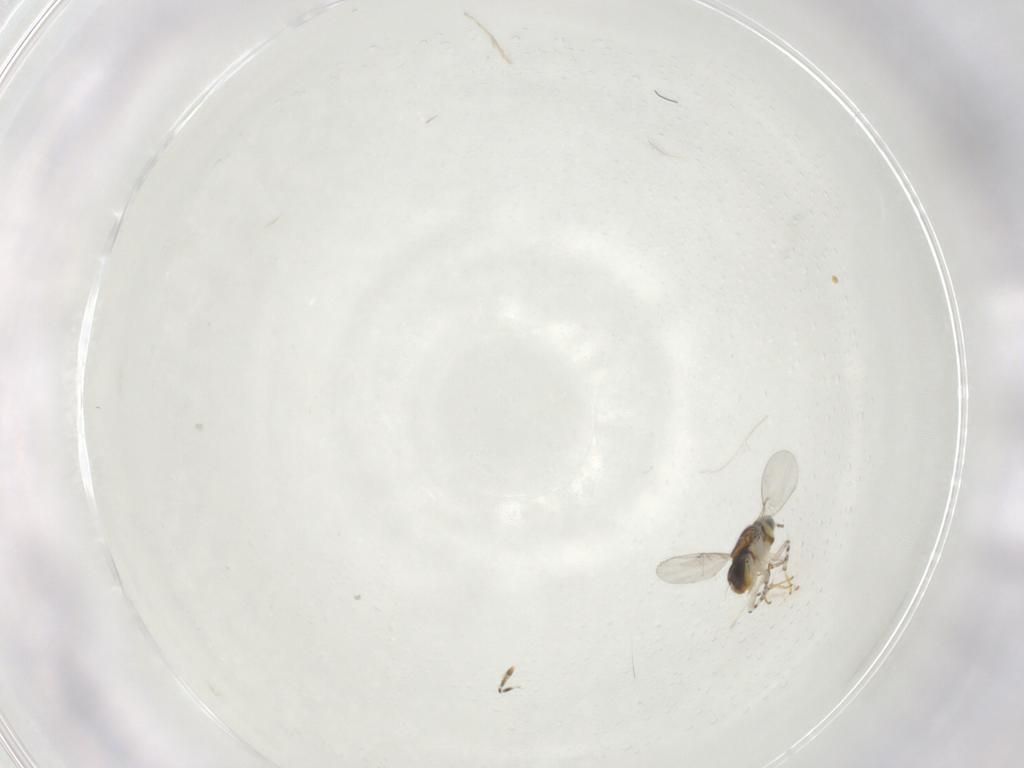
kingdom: Animalia
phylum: Arthropoda
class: Insecta
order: Hymenoptera
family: Encyrtidae
